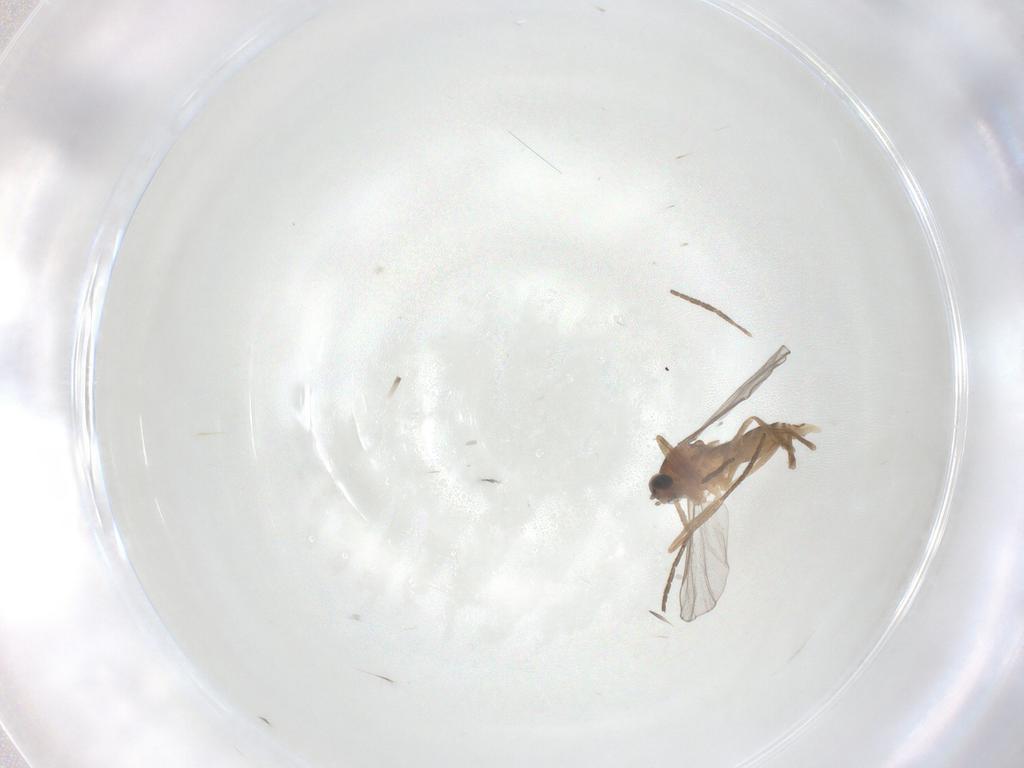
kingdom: Animalia
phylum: Arthropoda
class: Insecta
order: Diptera
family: Cecidomyiidae
